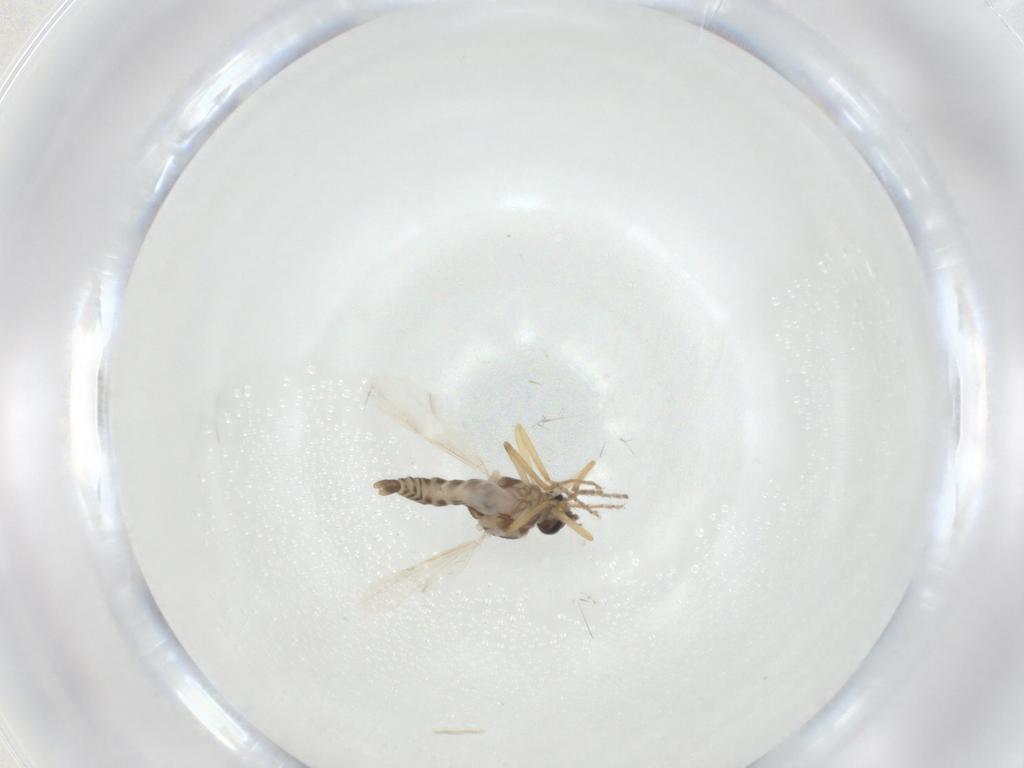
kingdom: Animalia
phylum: Arthropoda
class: Insecta
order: Diptera
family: Ceratopogonidae
